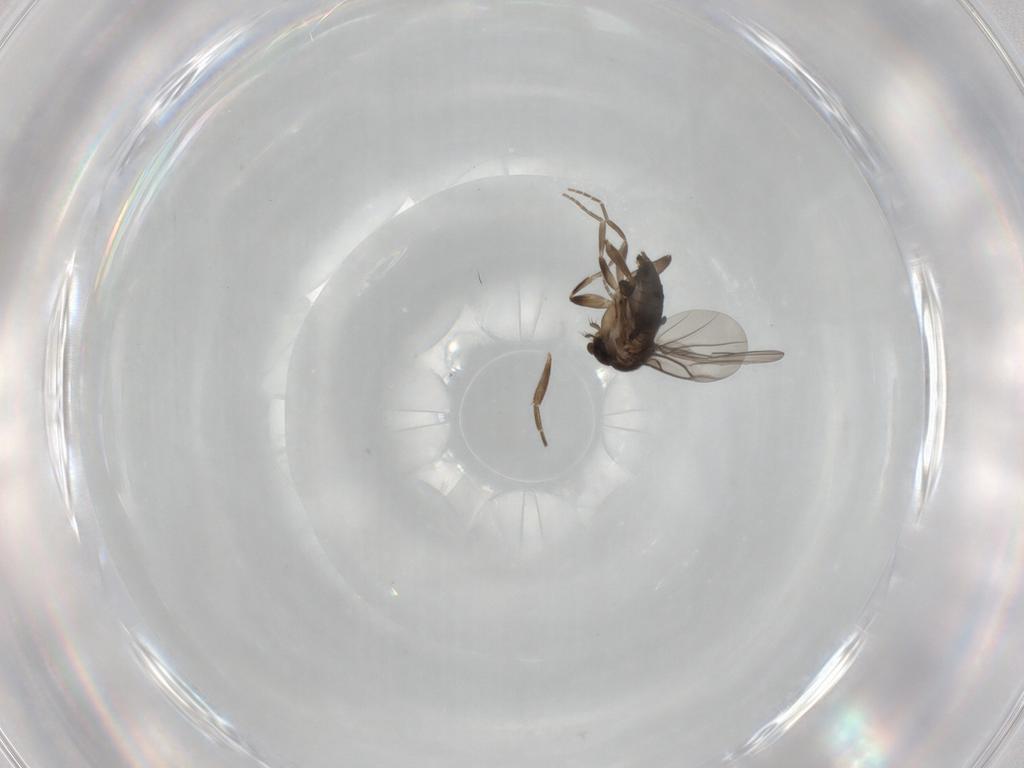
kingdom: Animalia
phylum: Arthropoda
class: Insecta
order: Diptera
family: Phoridae
